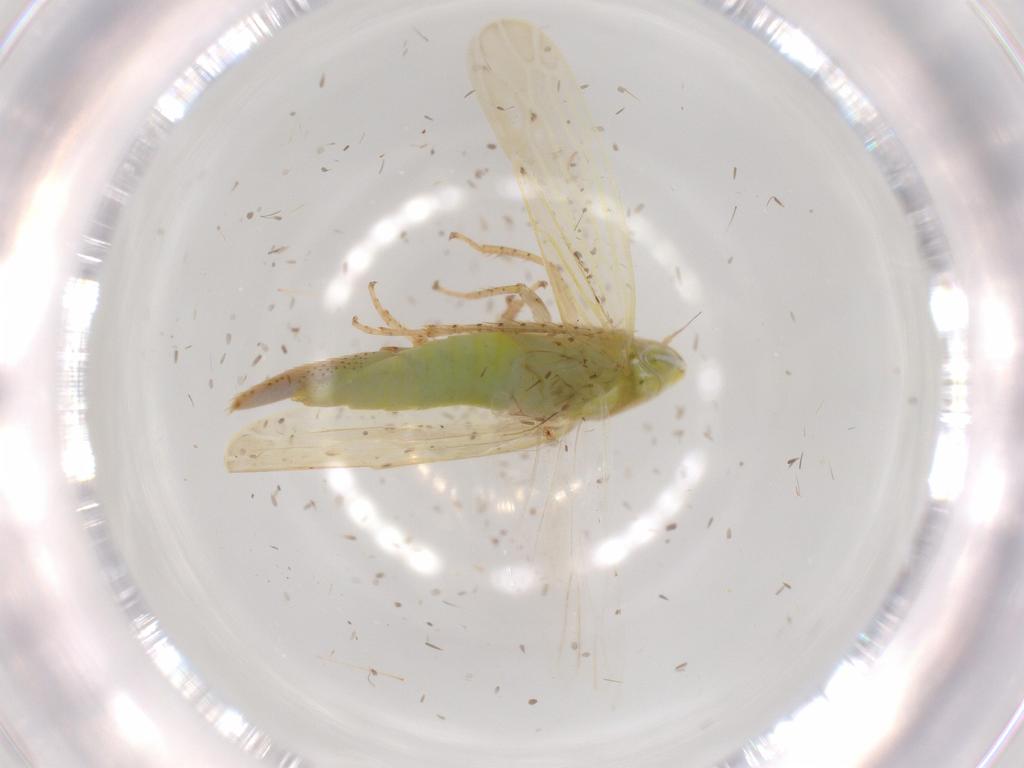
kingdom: Animalia
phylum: Arthropoda
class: Insecta
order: Hemiptera
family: Cicadellidae
